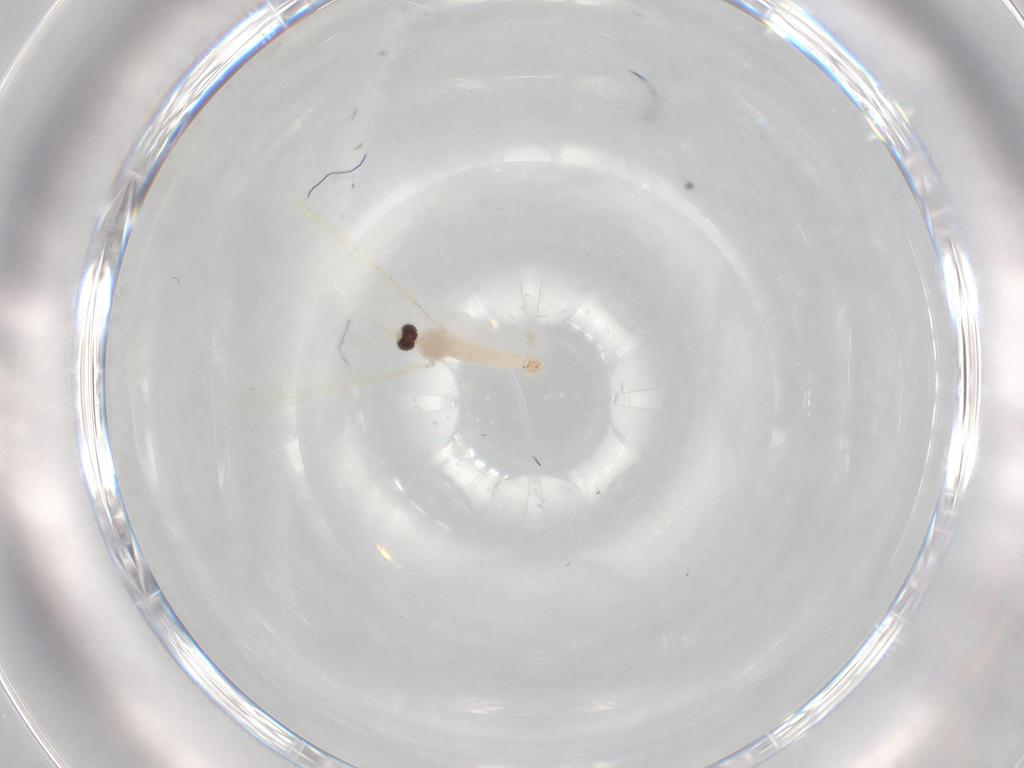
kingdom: Animalia
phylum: Arthropoda
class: Insecta
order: Diptera
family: Cecidomyiidae
